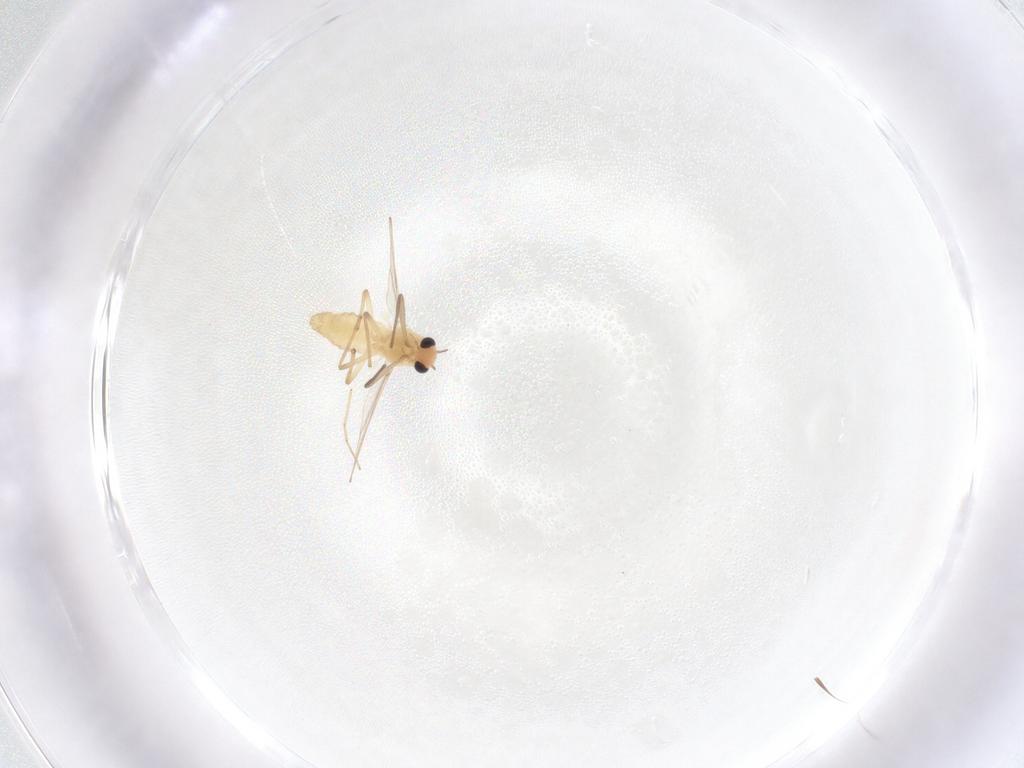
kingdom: Animalia
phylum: Arthropoda
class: Insecta
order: Diptera
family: Chironomidae
